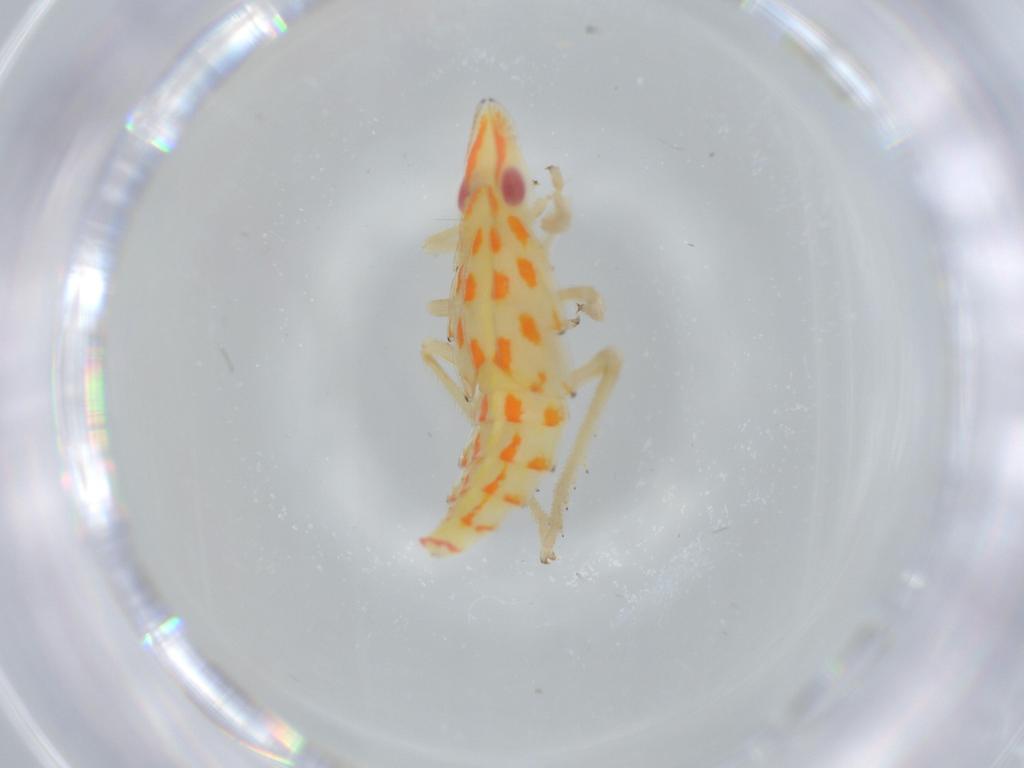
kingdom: Animalia
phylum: Arthropoda
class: Insecta
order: Hemiptera
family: Tropiduchidae
